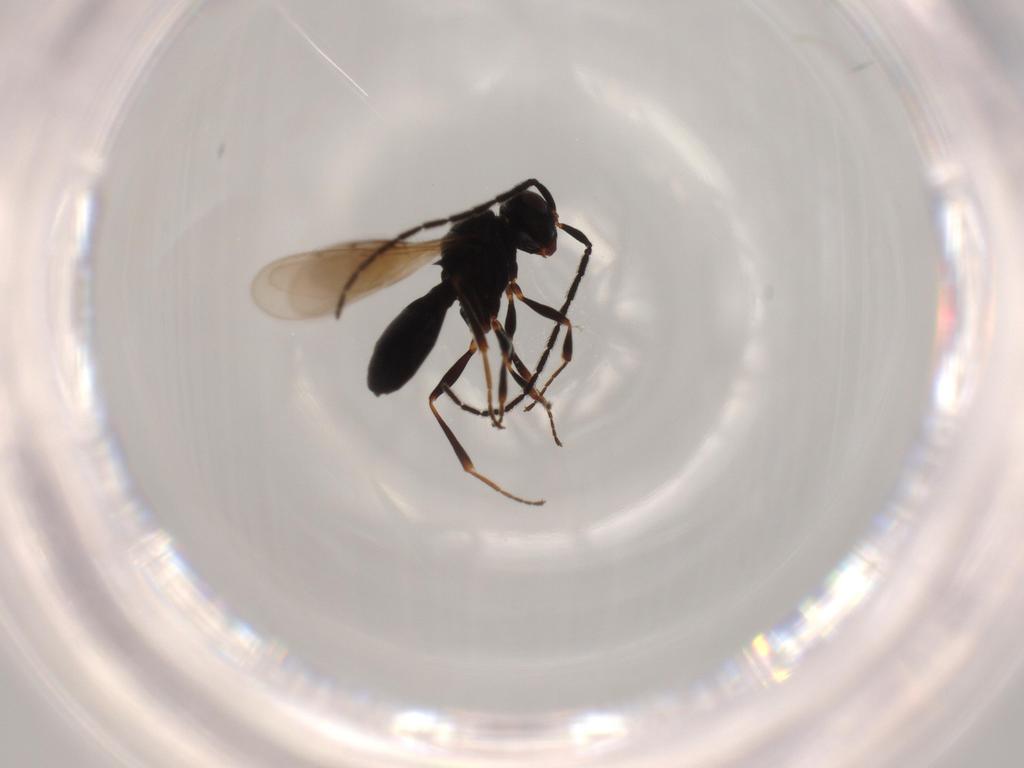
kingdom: Animalia
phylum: Arthropoda
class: Insecta
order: Hymenoptera
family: Scelionidae
